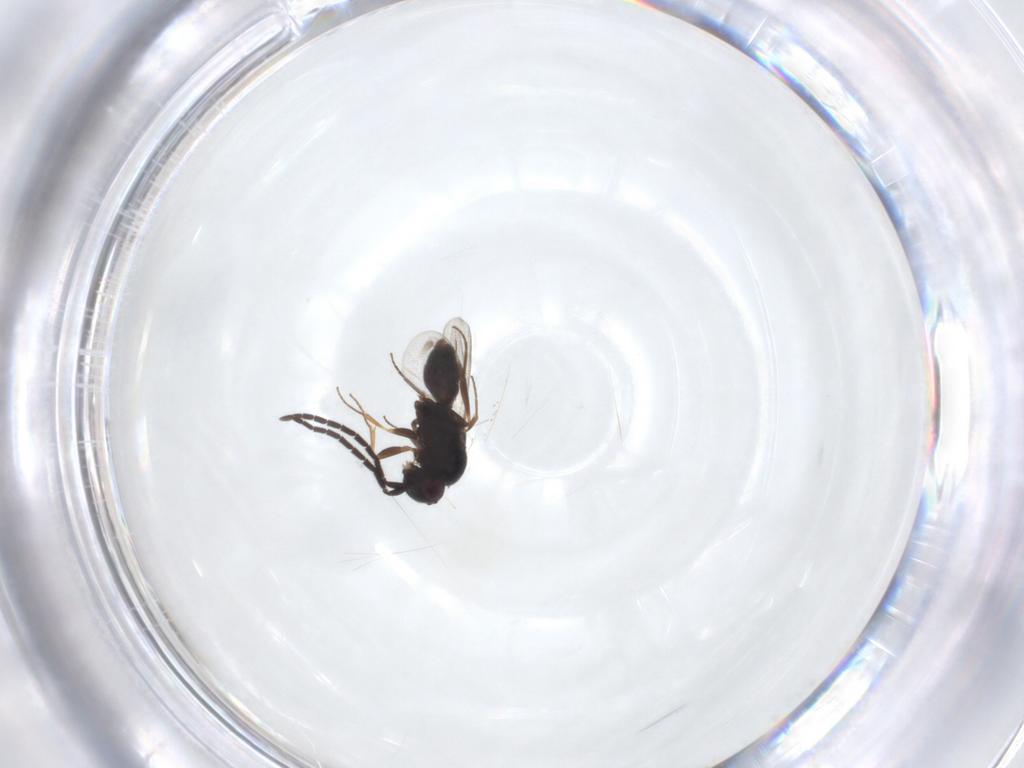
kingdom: Animalia
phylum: Arthropoda
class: Insecta
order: Hymenoptera
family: Megaspilidae
